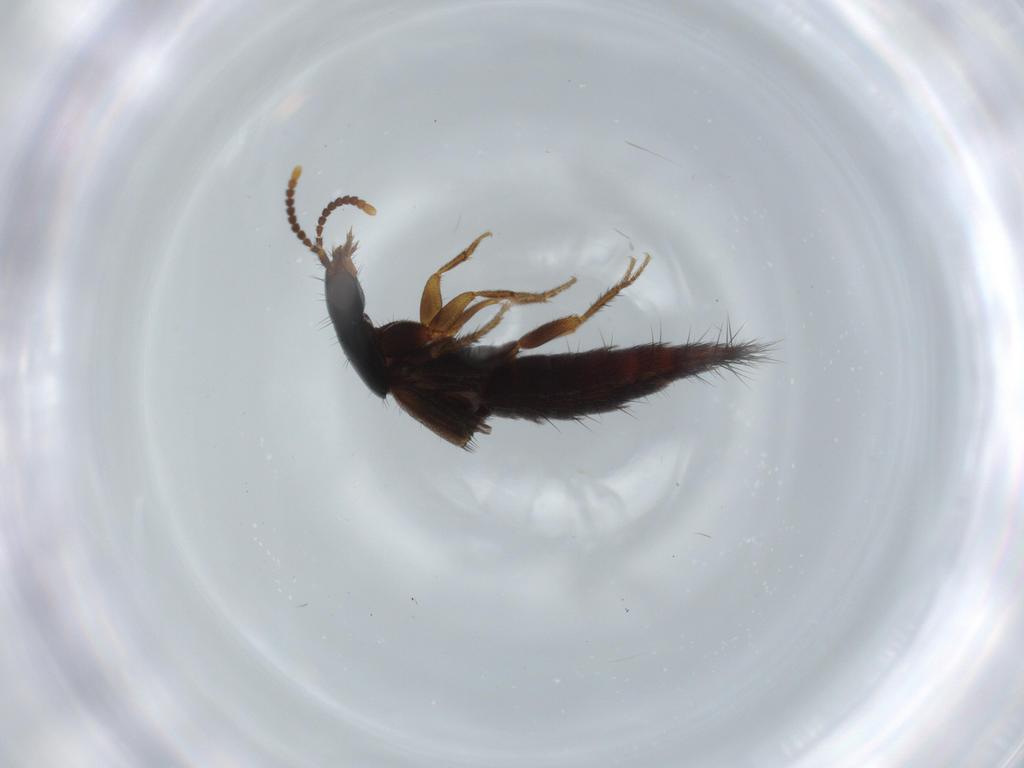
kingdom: Animalia
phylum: Arthropoda
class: Insecta
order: Coleoptera
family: Staphylinidae
